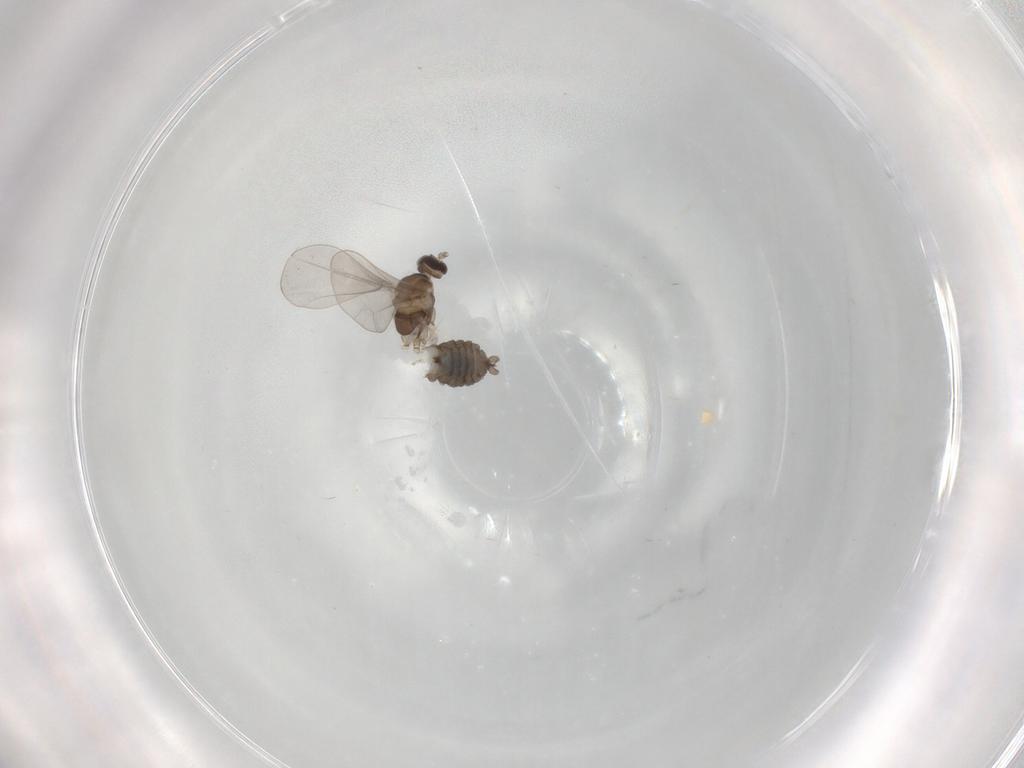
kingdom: Animalia
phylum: Arthropoda
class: Insecta
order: Diptera
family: Cecidomyiidae
